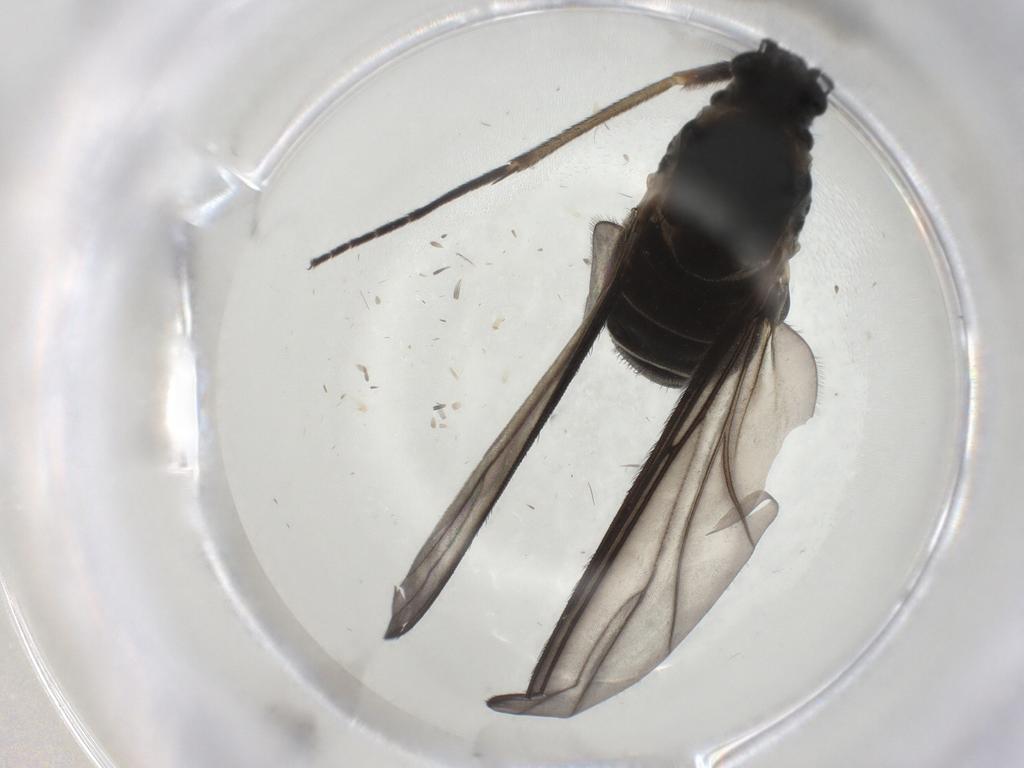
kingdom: Animalia
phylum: Arthropoda
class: Insecta
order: Diptera
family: Sciaridae
